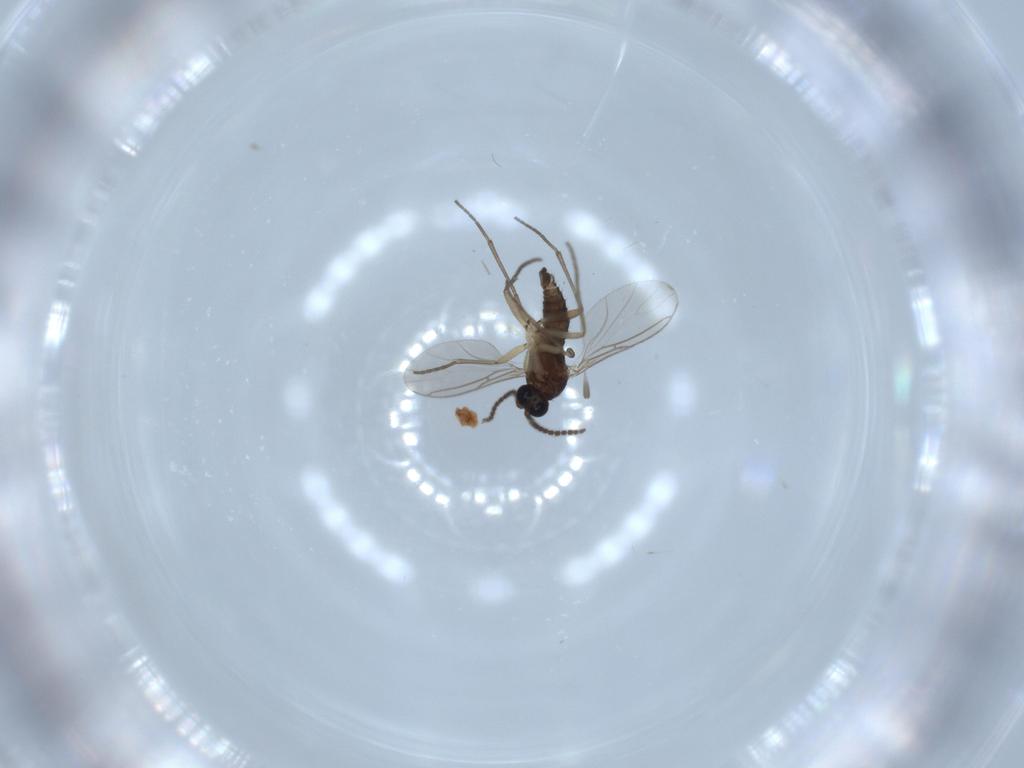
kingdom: Animalia
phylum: Arthropoda
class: Insecta
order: Diptera
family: Sciaridae
